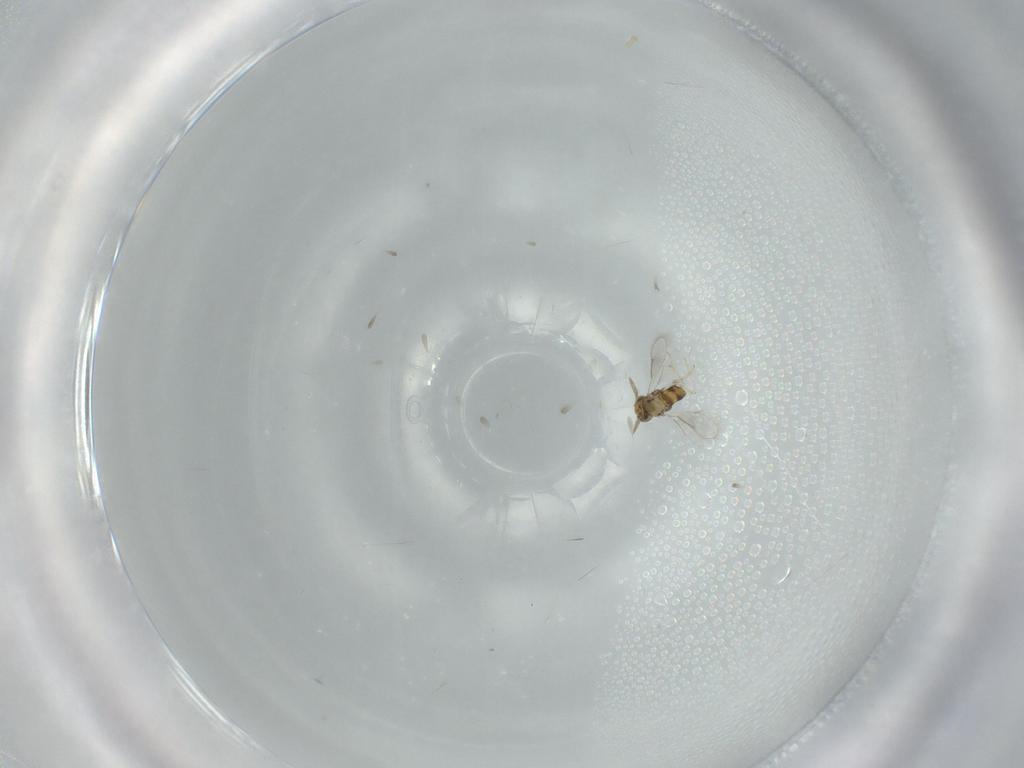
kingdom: Animalia
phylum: Arthropoda
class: Insecta
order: Hymenoptera
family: Aphelinidae
